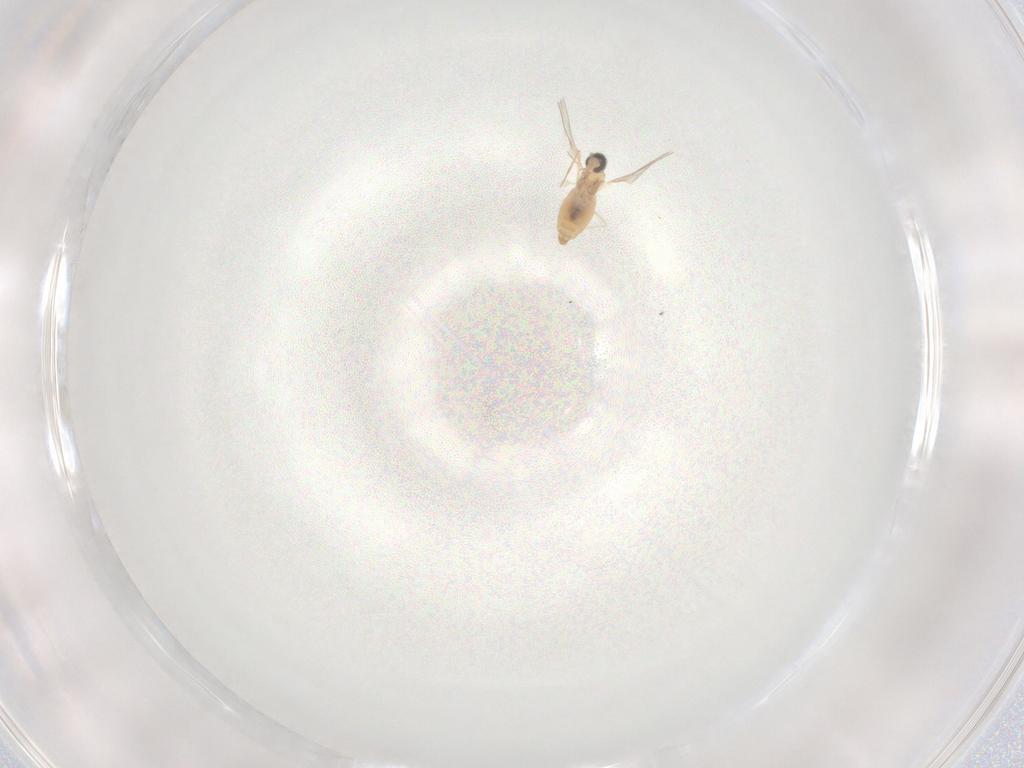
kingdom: Animalia
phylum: Arthropoda
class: Insecta
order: Diptera
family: Cecidomyiidae
